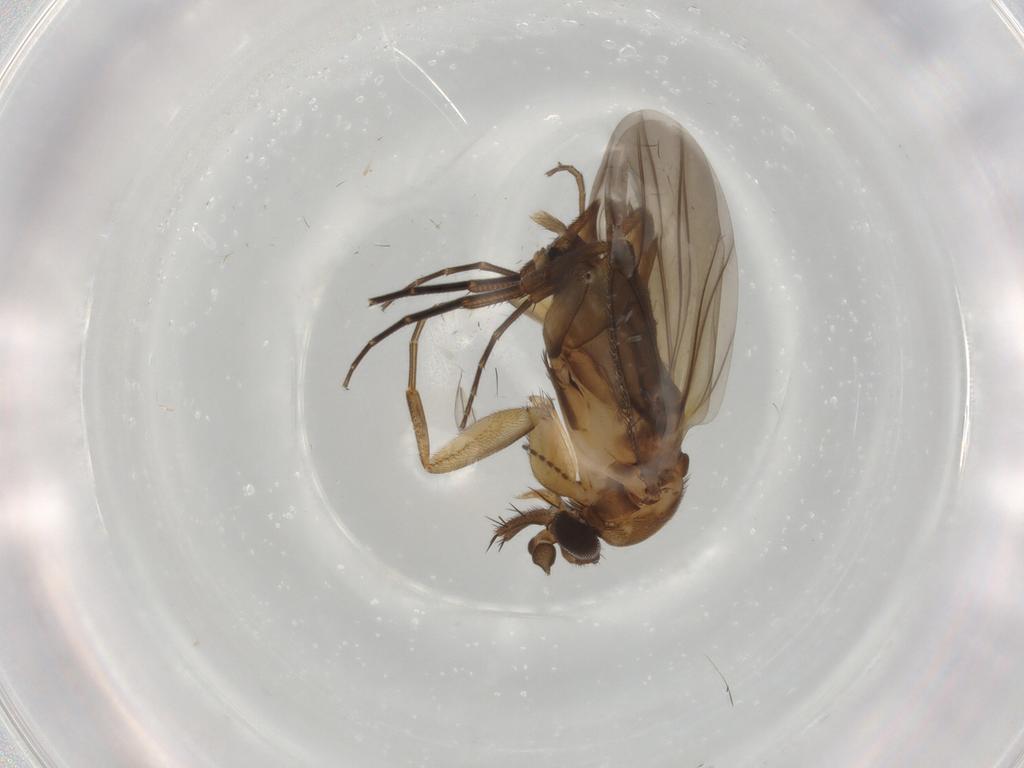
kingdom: Animalia
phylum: Arthropoda
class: Insecta
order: Diptera
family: Phoridae
